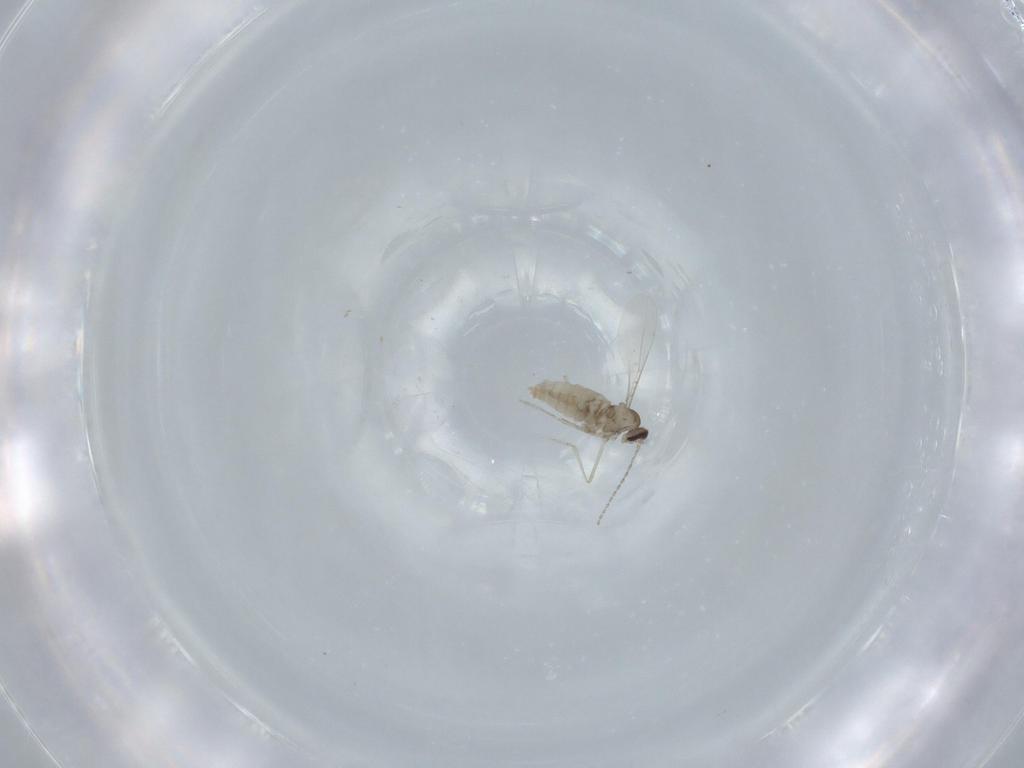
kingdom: Animalia
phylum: Arthropoda
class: Insecta
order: Diptera
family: Cecidomyiidae
